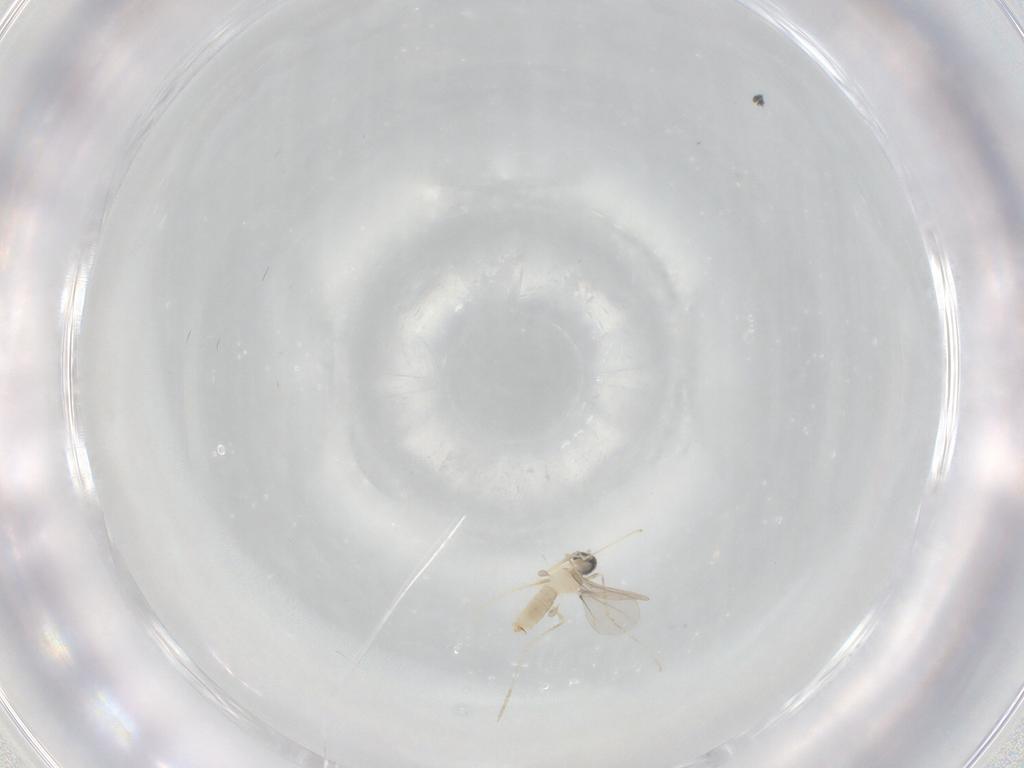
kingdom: Animalia
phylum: Arthropoda
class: Insecta
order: Diptera
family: Cecidomyiidae
